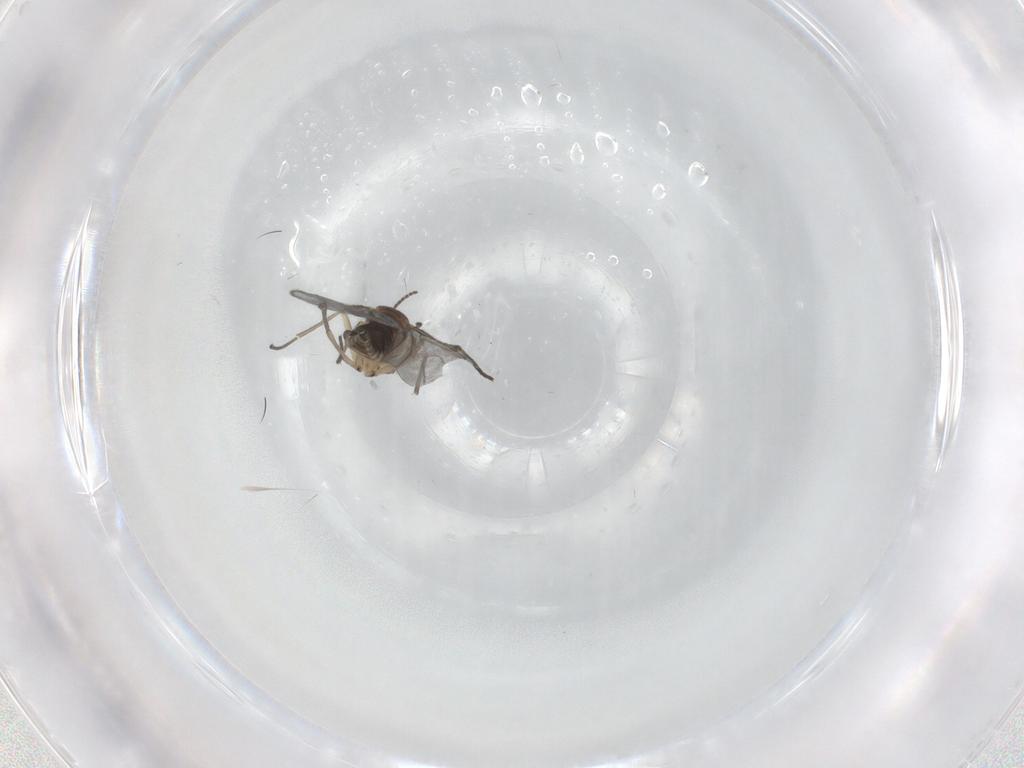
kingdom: Animalia
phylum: Arthropoda
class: Insecta
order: Diptera
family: Sciaridae
